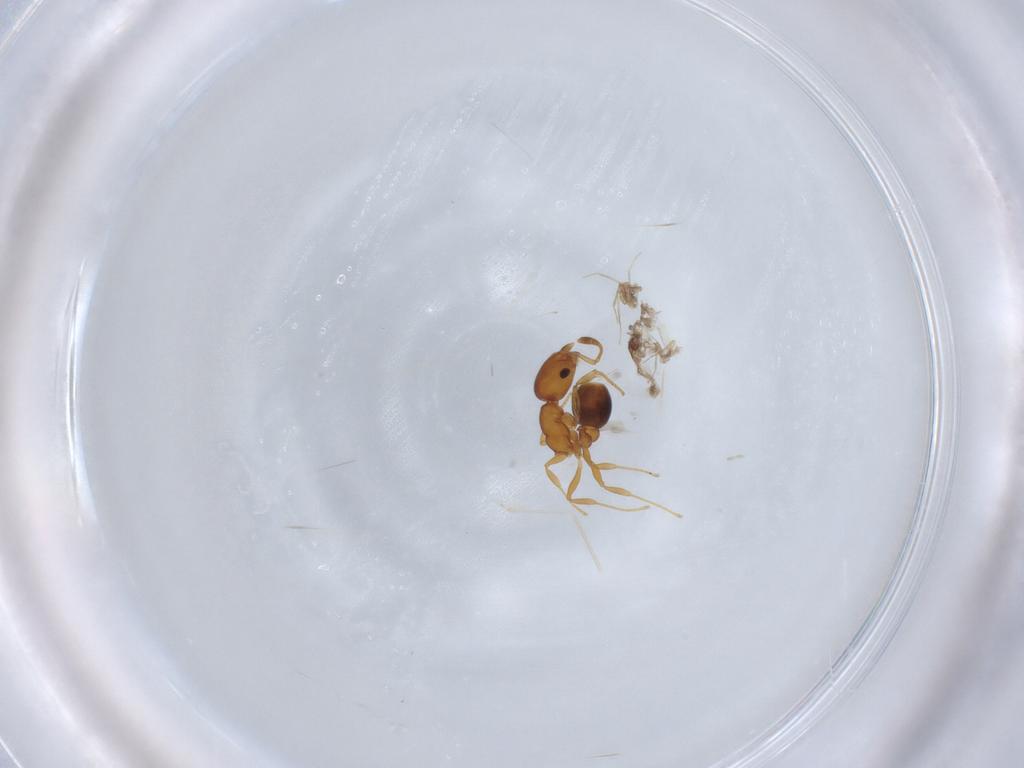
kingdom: Animalia
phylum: Arthropoda
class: Insecta
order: Hymenoptera
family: Formicidae
